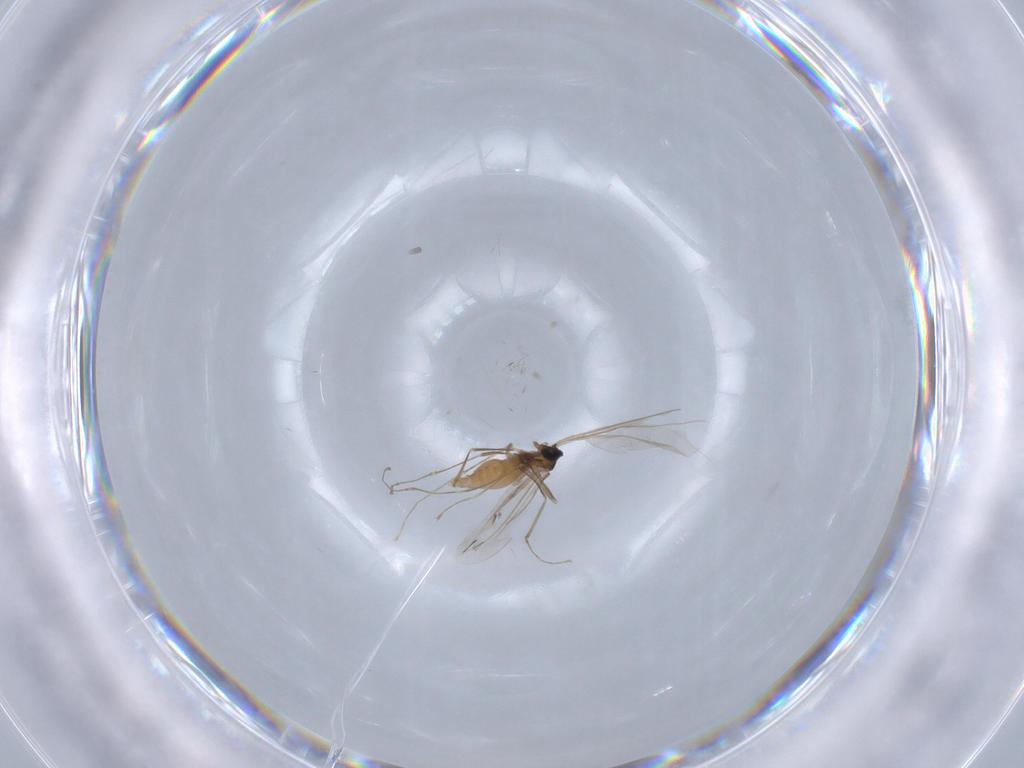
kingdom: Animalia
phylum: Arthropoda
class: Insecta
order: Diptera
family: Cecidomyiidae
